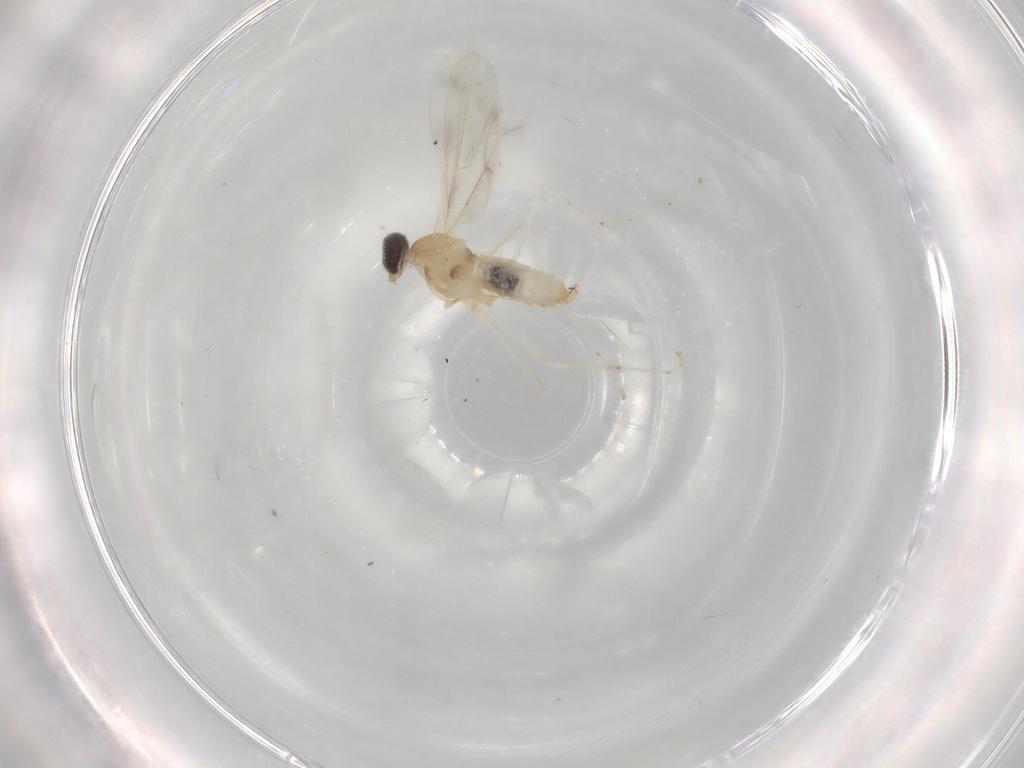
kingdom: Animalia
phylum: Arthropoda
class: Insecta
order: Diptera
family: Cecidomyiidae
